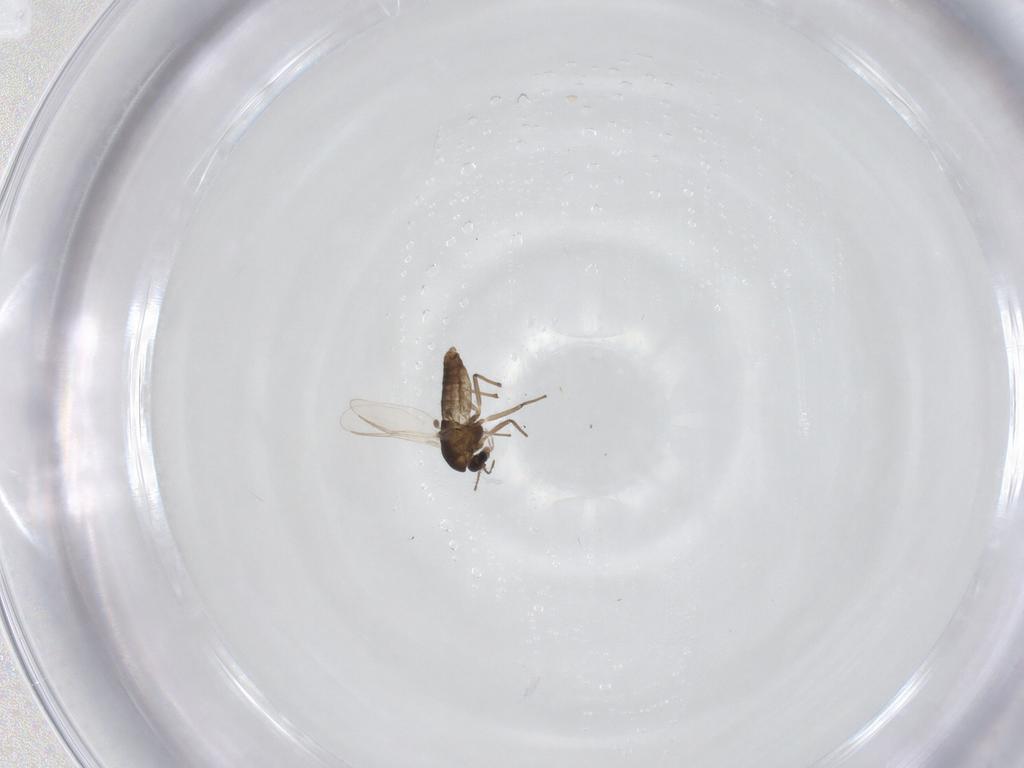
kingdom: Animalia
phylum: Arthropoda
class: Insecta
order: Diptera
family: Chironomidae
